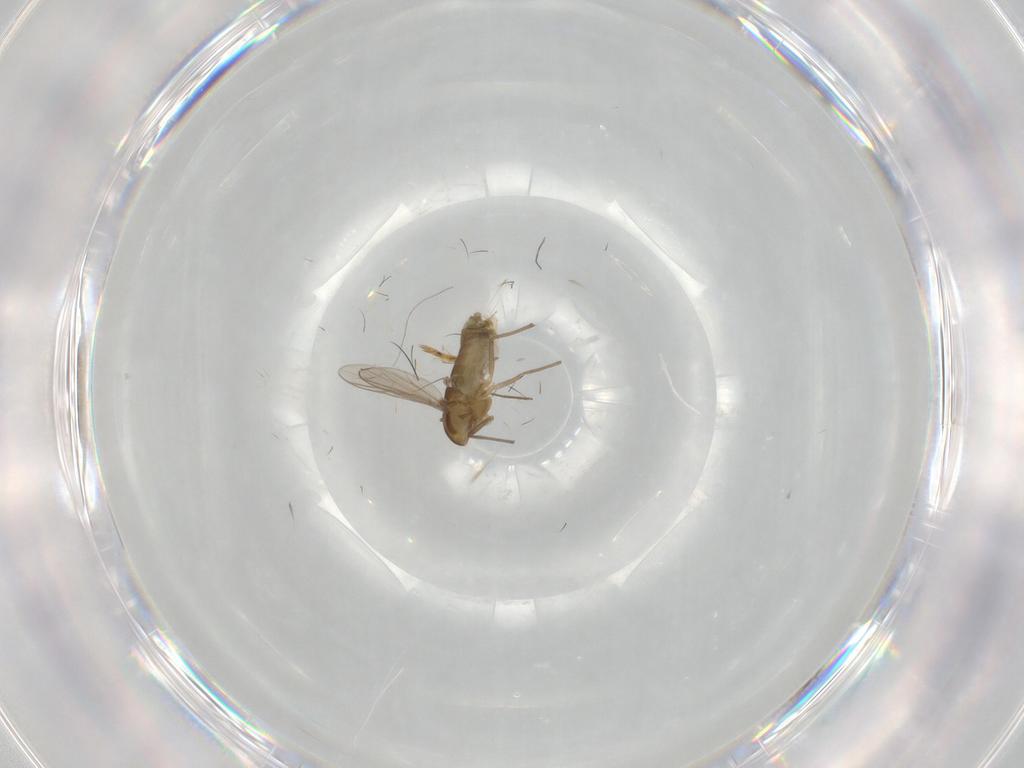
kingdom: Animalia
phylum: Arthropoda
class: Insecta
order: Diptera
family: Chironomidae
